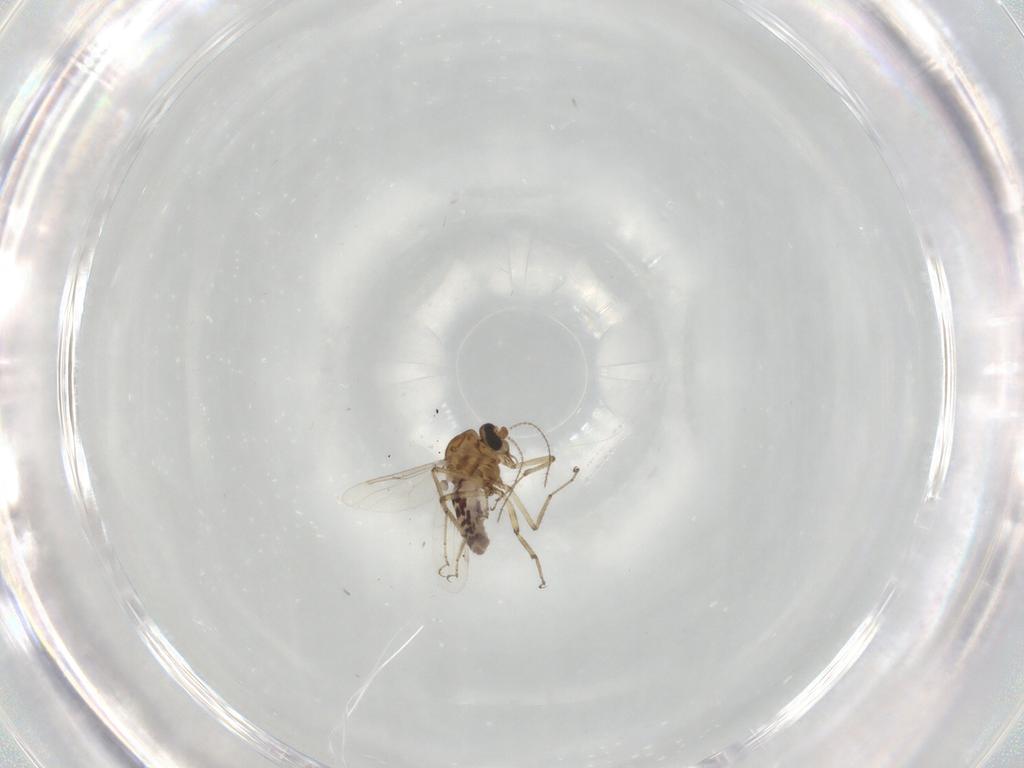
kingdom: Animalia
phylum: Arthropoda
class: Insecta
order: Diptera
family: Ceratopogonidae
